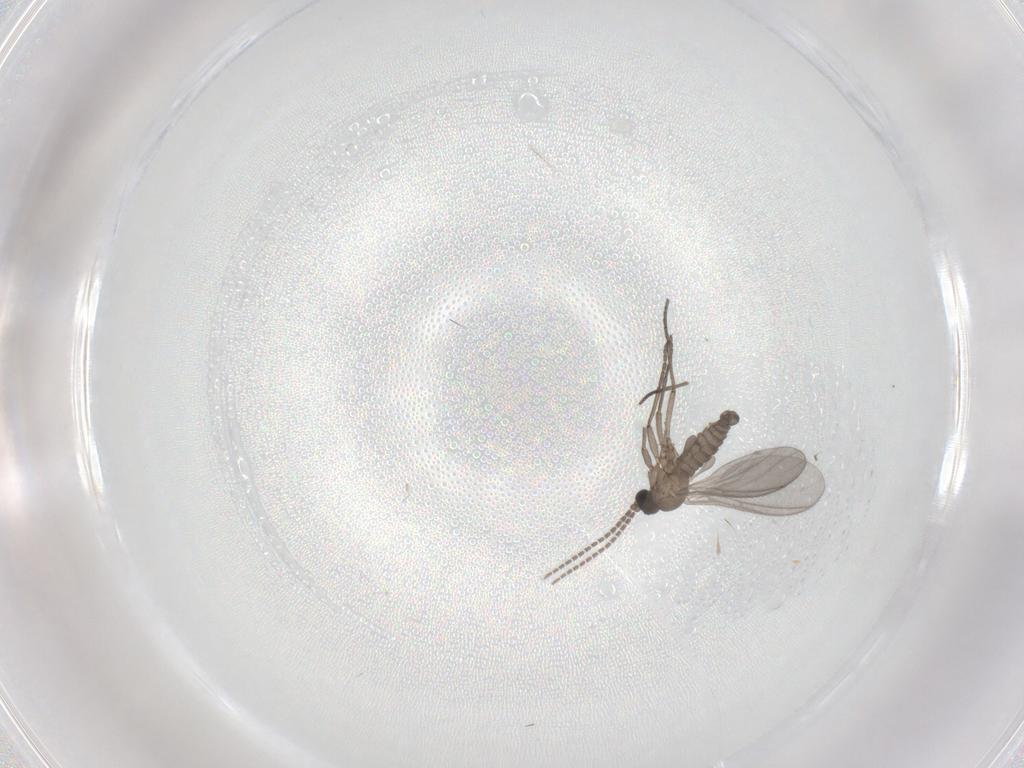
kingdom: Animalia
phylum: Arthropoda
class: Insecta
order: Diptera
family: Sciaridae
